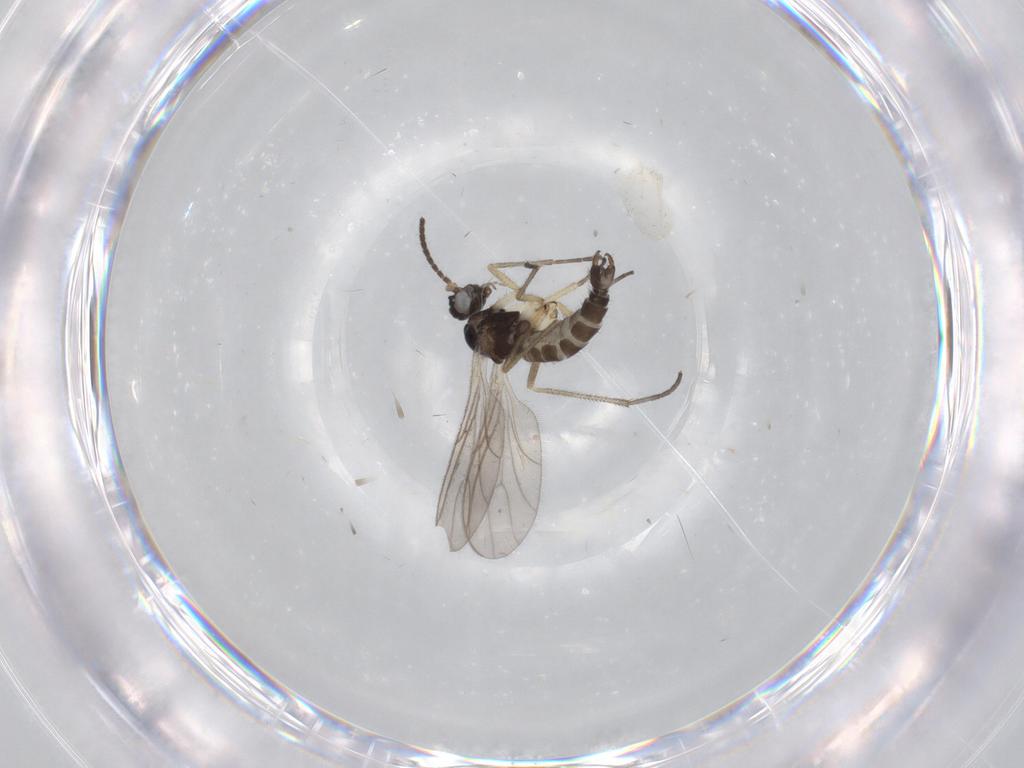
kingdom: Animalia
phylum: Arthropoda
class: Insecta
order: Diptera
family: Sciaridae
